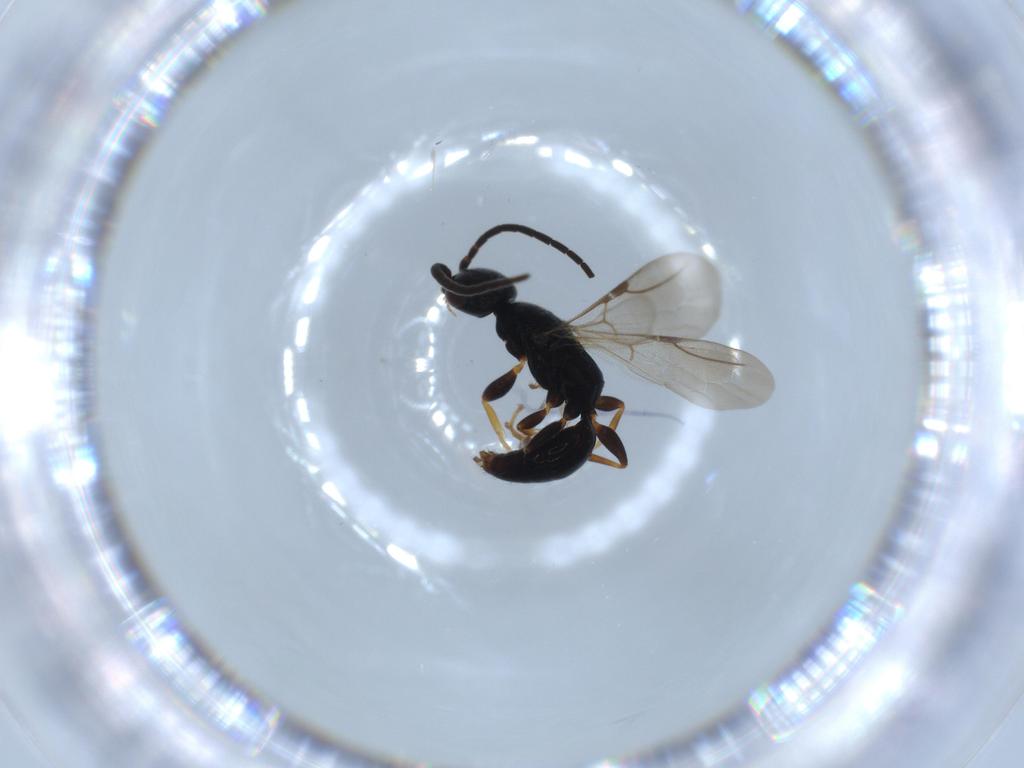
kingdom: Animalia
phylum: Arthropoda
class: Insecta
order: Hymenoptera
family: Bethylidae
